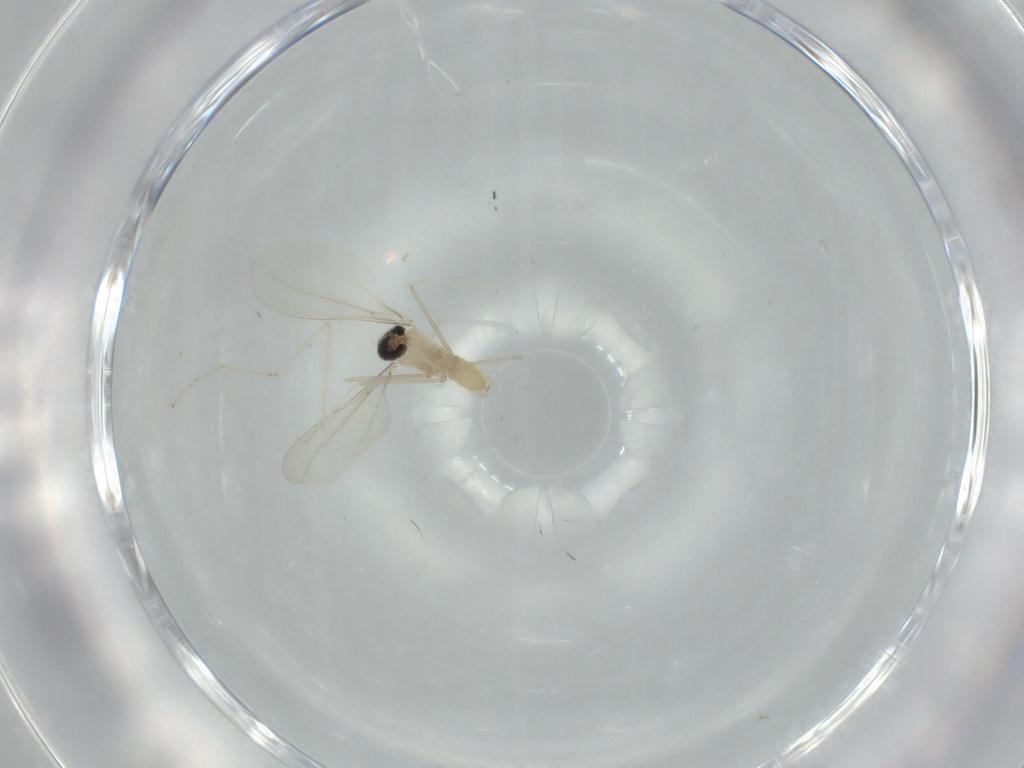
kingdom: Animalia
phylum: Arthropoda
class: Insecta
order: Diptera
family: Cecidomyiidae
